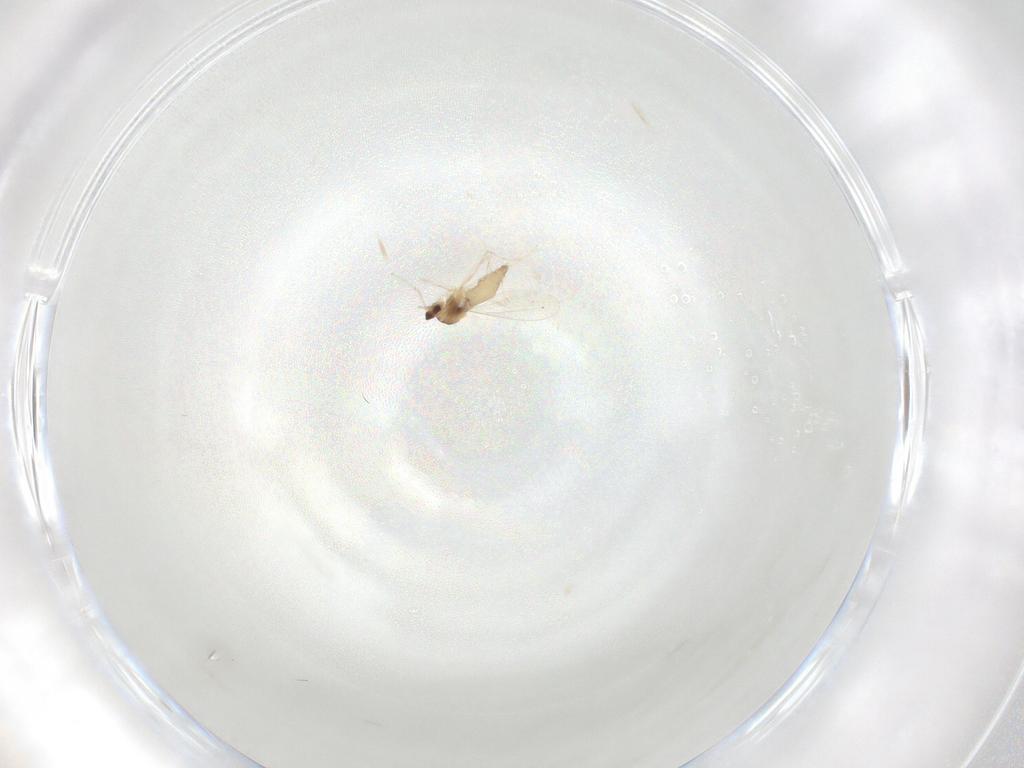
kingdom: Animalia
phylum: Arthropoda
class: Insecta
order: Diptera
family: Cecidomyiidae
